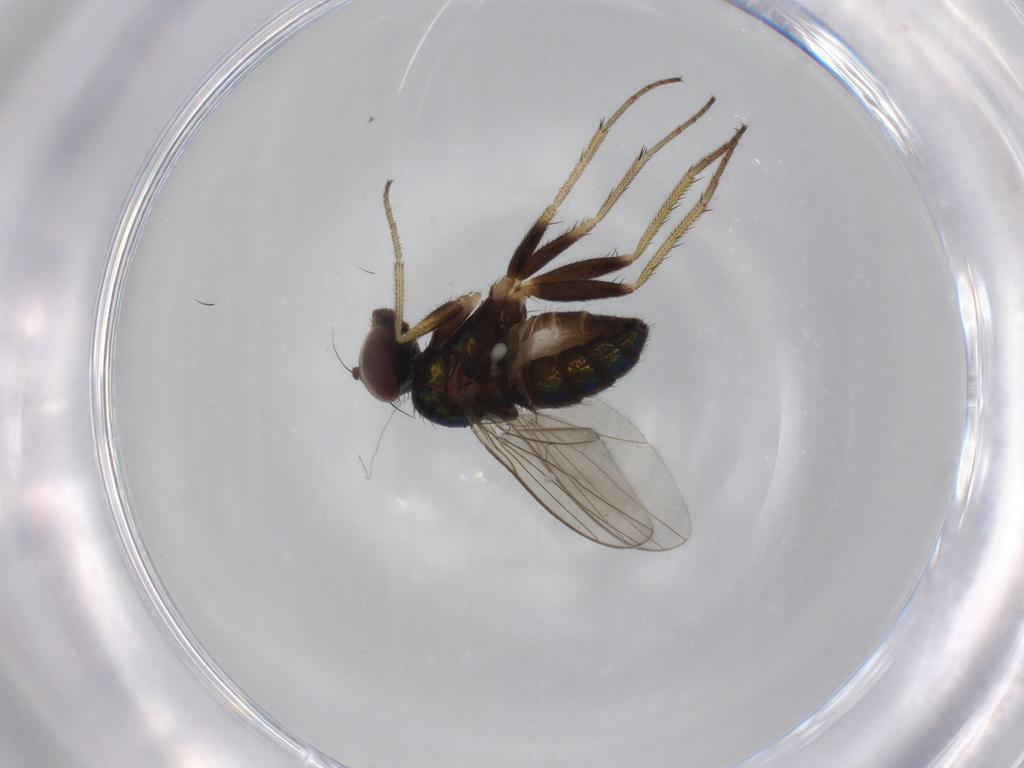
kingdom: Animalia
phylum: Arthropoda
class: Insecta
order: Diptera
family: Dolichopodidae
